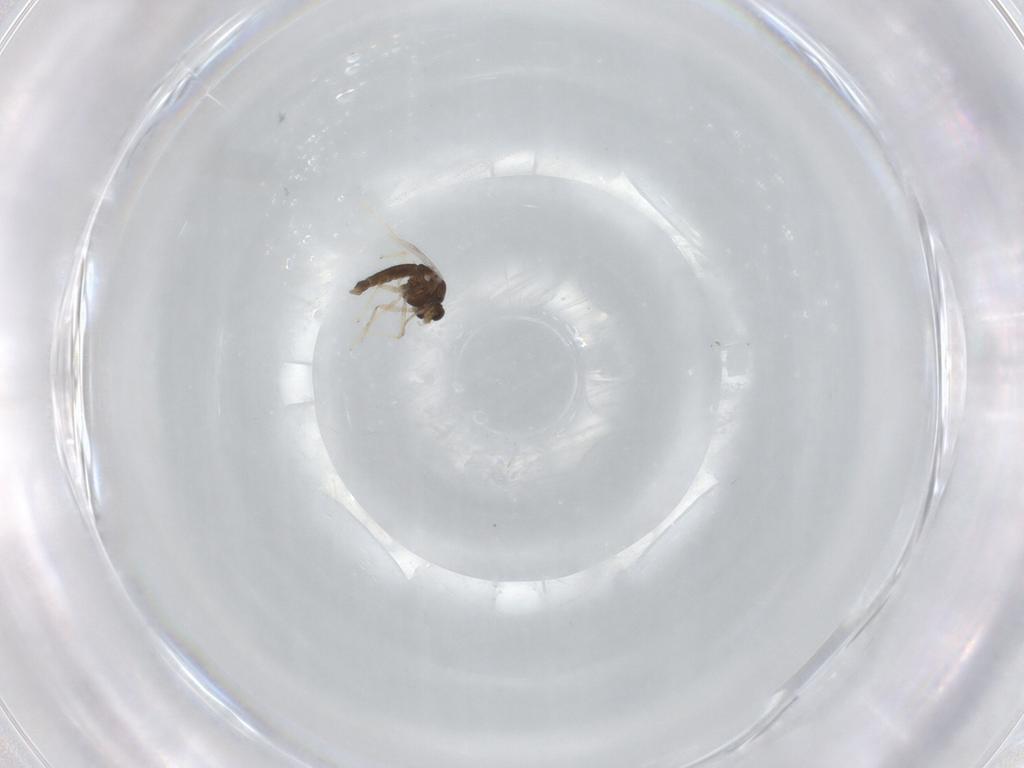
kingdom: Animalia
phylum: Arthropoda
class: Insecta
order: Diptera
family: Chironomidae
